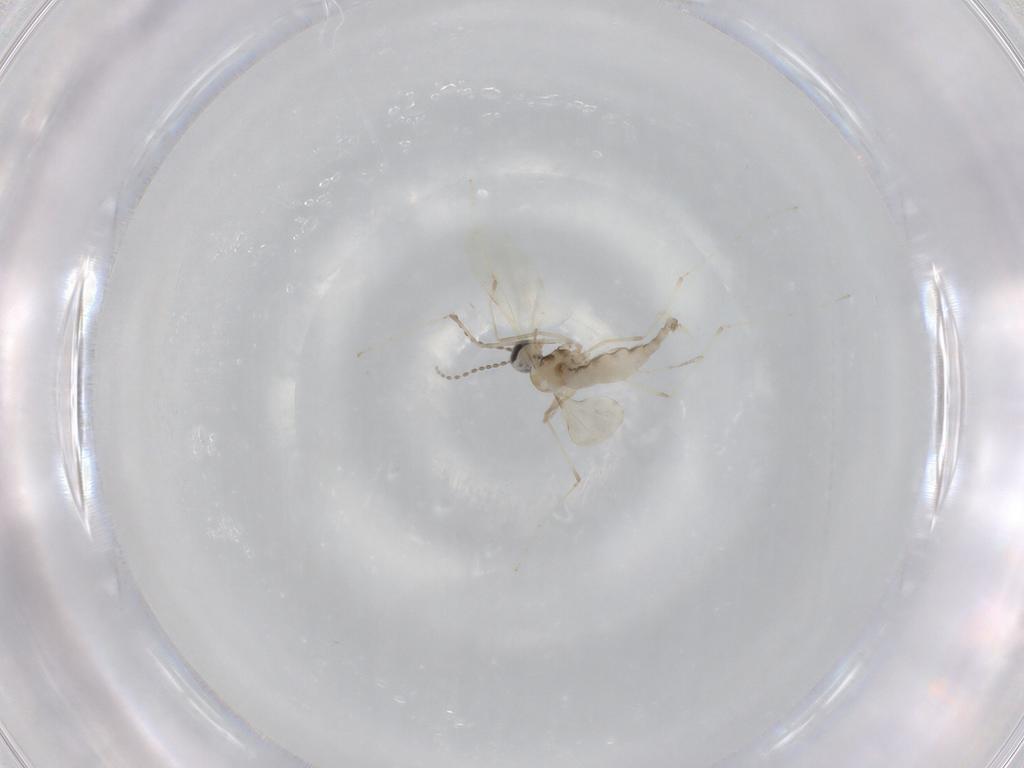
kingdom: Animalia
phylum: Arthropoda
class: Insecta
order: Diptera
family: Cecidomyiidae
